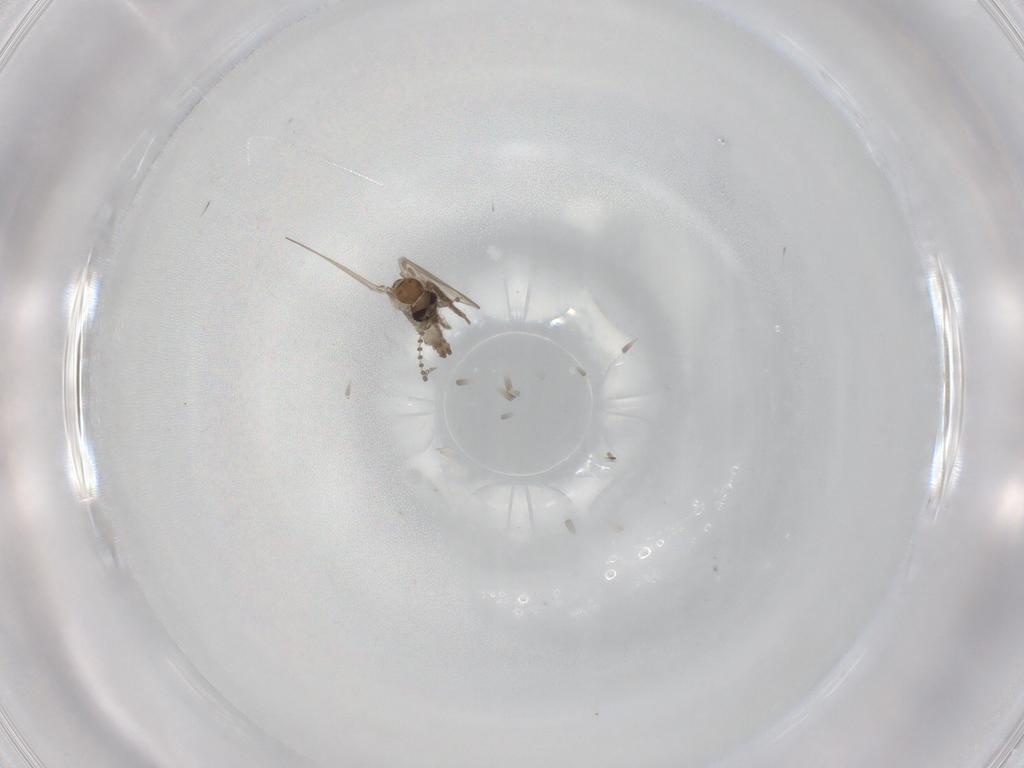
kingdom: Animalia
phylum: Arthropoda
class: Insecta
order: Diptera
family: Psychodidae
